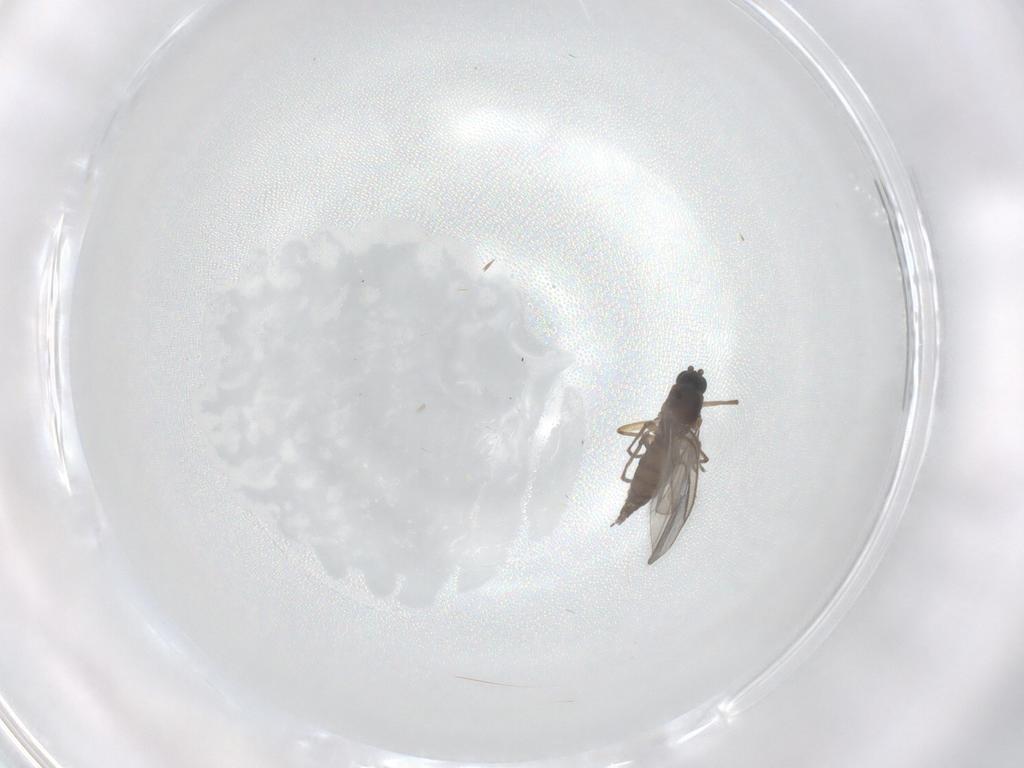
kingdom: Animalia
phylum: Arthropoda
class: Insecta
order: Diptera
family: Sciaridae
